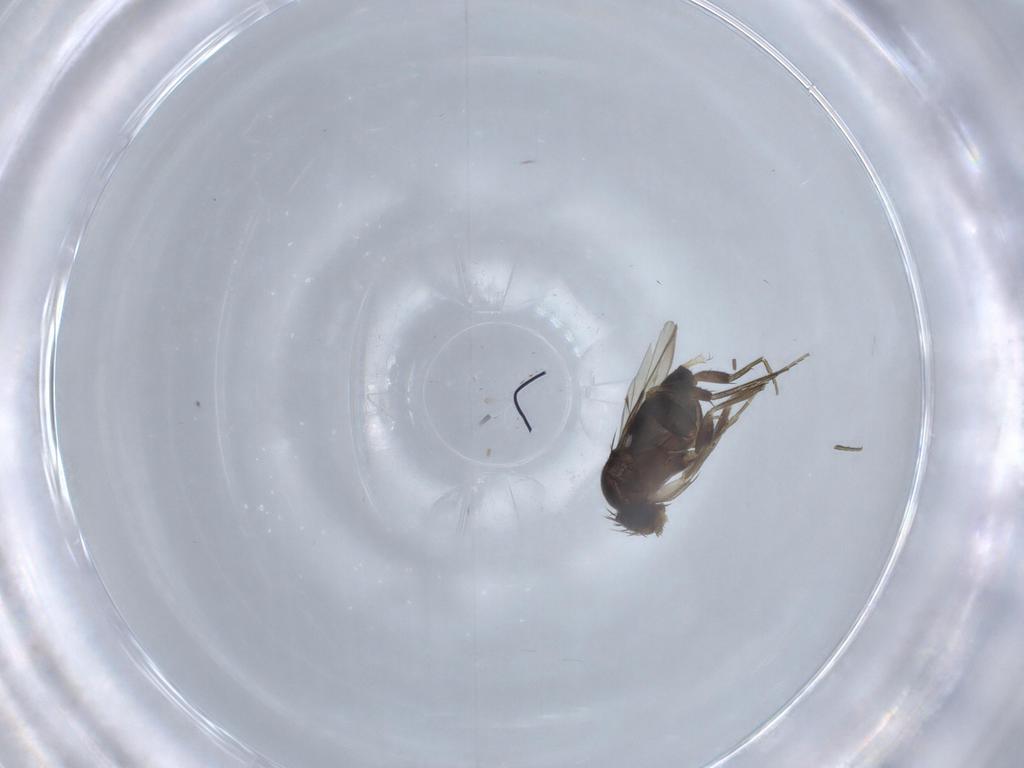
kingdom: Animalia
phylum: Arthropoda
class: Insecta
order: Diptera
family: Phoridae
